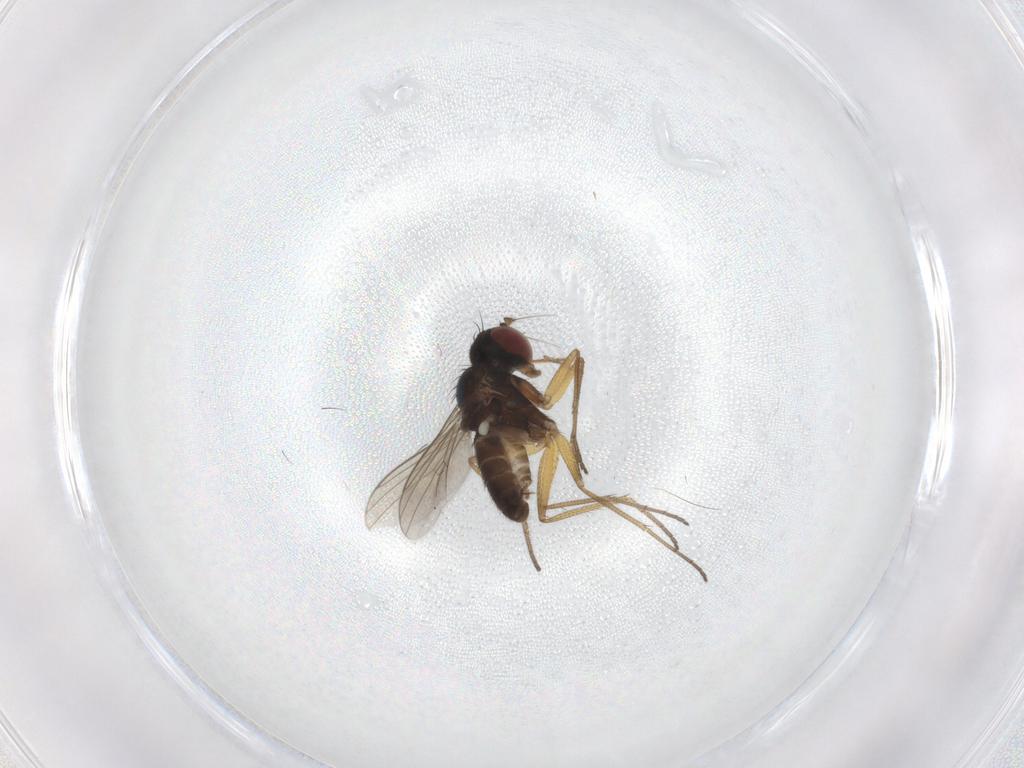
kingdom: Animalia
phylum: Arthropoda
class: Insecta
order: Diptera
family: Dolichopodidae
